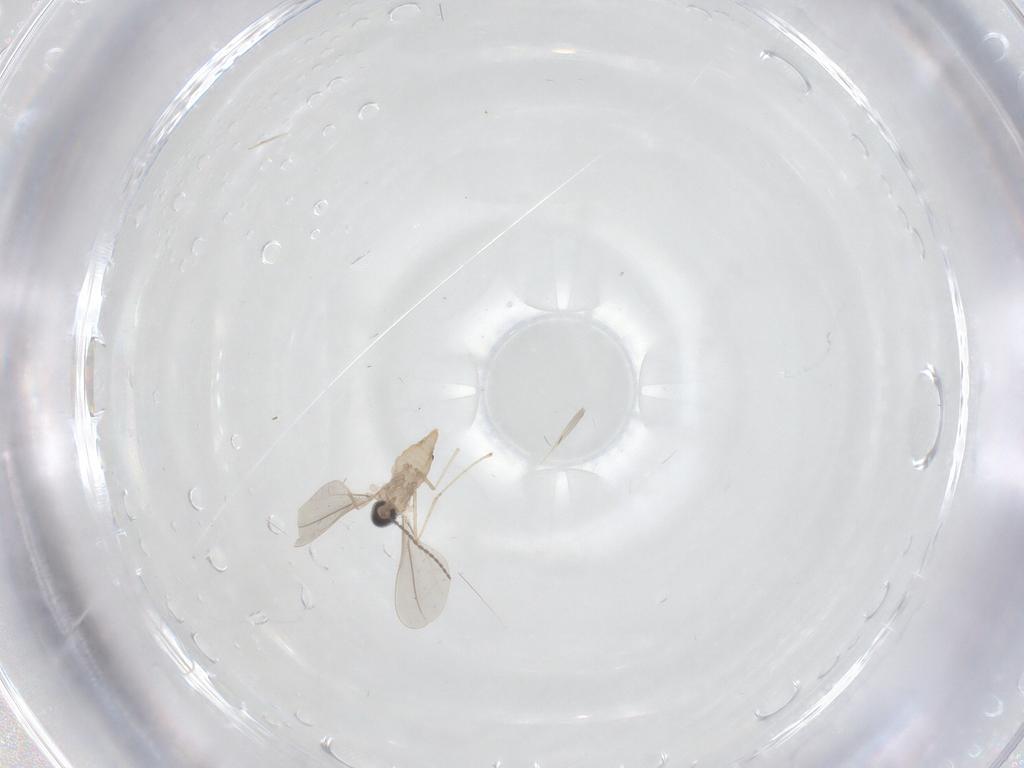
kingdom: Animalia
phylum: Arthropoda
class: Insecta
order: Diptera
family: Cecidomyiidae
